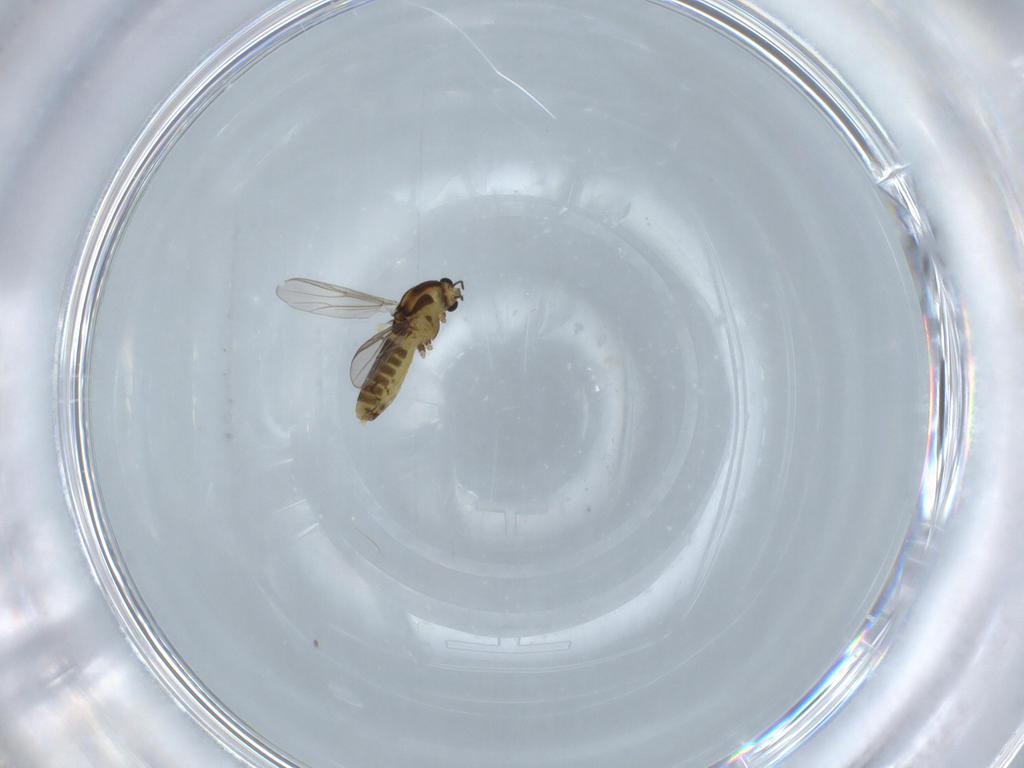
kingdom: Animalia
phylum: Arthropoda
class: Insecta
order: Diptera
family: Chironomidae
